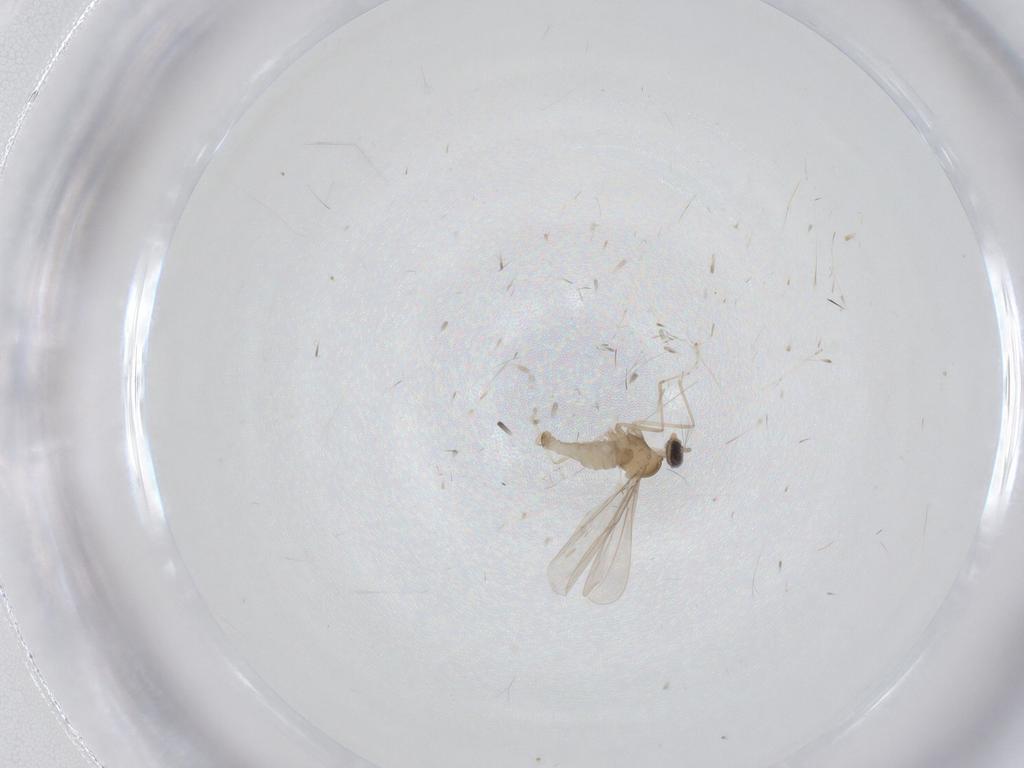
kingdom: Animalia
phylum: Arthropoda
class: Insecta
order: Diptera
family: Cecidomyiidae
